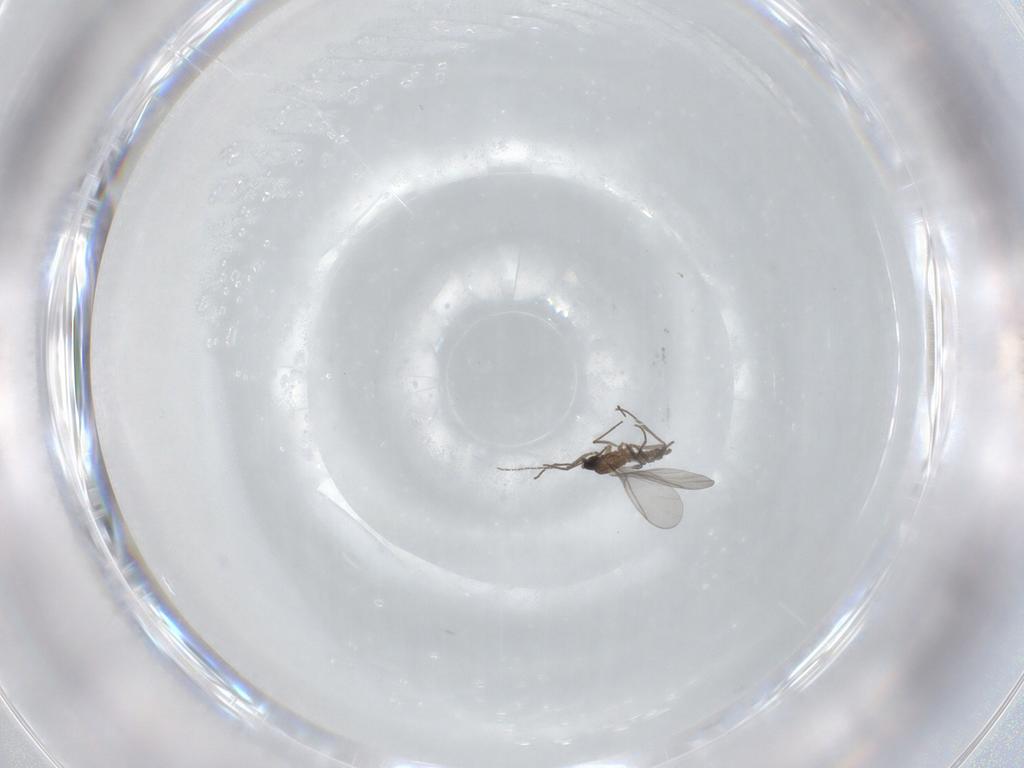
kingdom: Animalia
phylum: Arthropoda
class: Insecta
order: Diptera
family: Sciaridae
